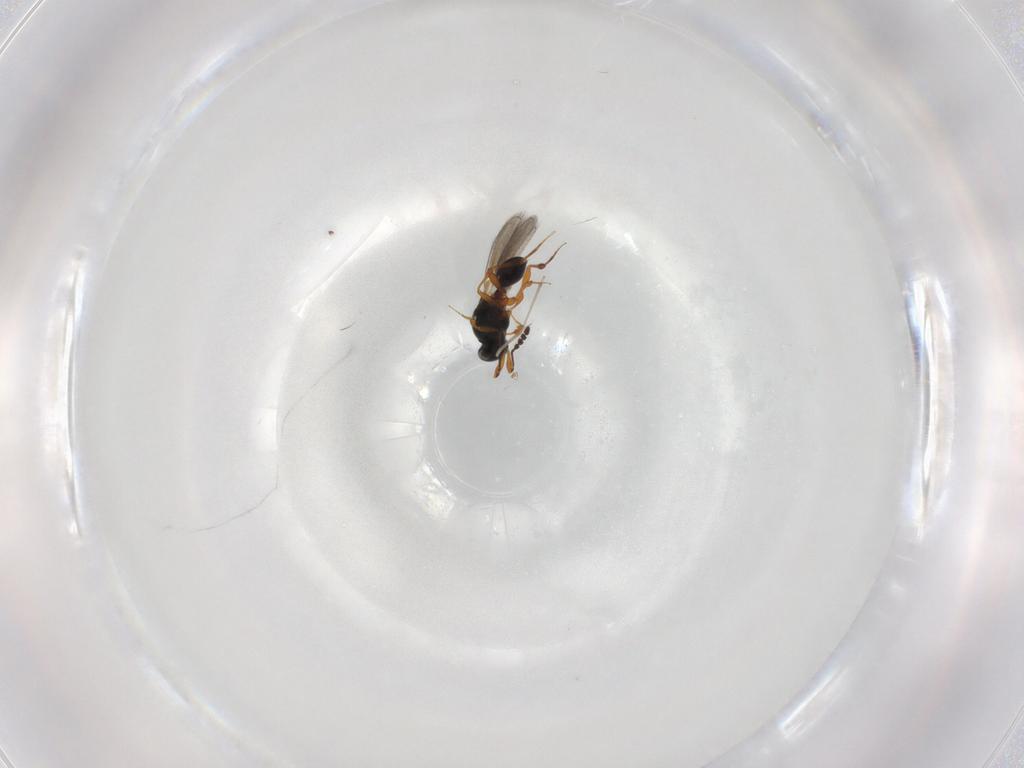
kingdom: Animalia
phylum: Arthropoda
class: Insecta
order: Hymenoptera
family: Platygastridae
